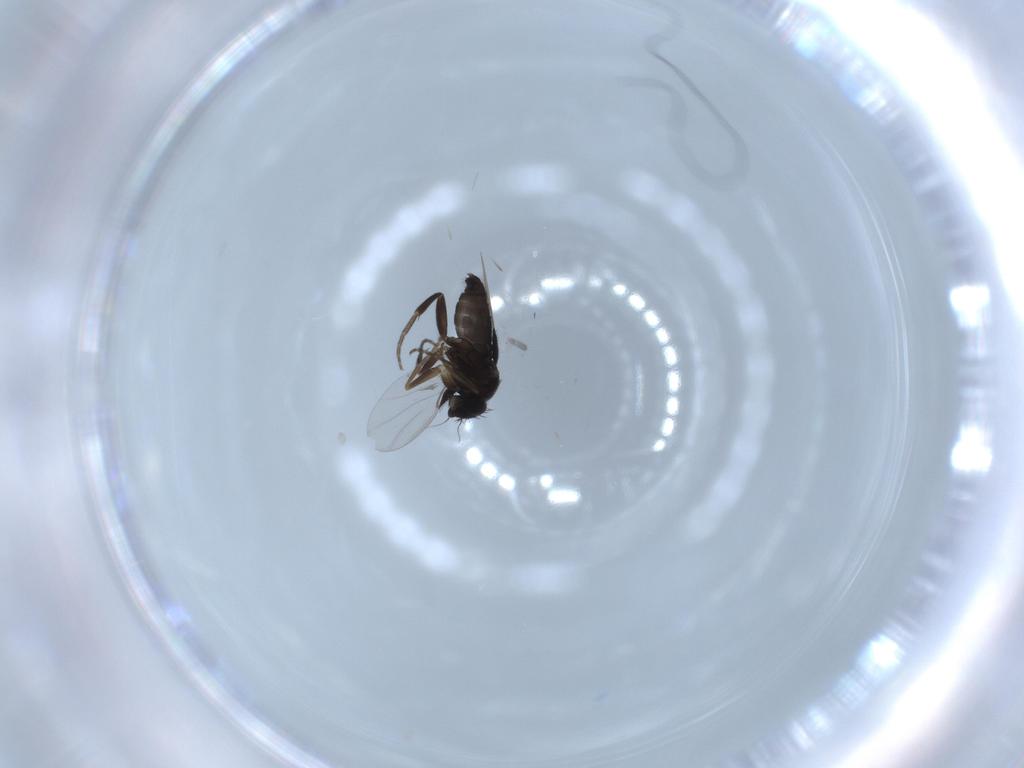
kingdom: Animalia
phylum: Arthropoda
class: Insecta
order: Diptera
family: Phoridae
